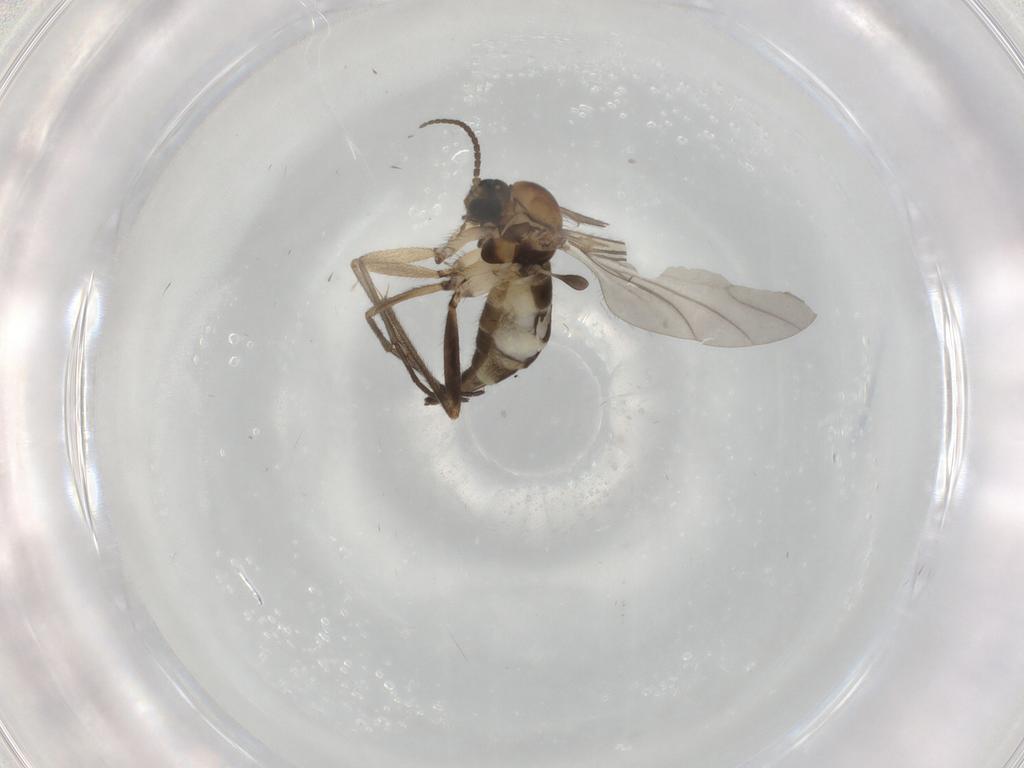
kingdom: Animalia
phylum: Arthropoda
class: Insecta
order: Diptera
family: Sciaridae
